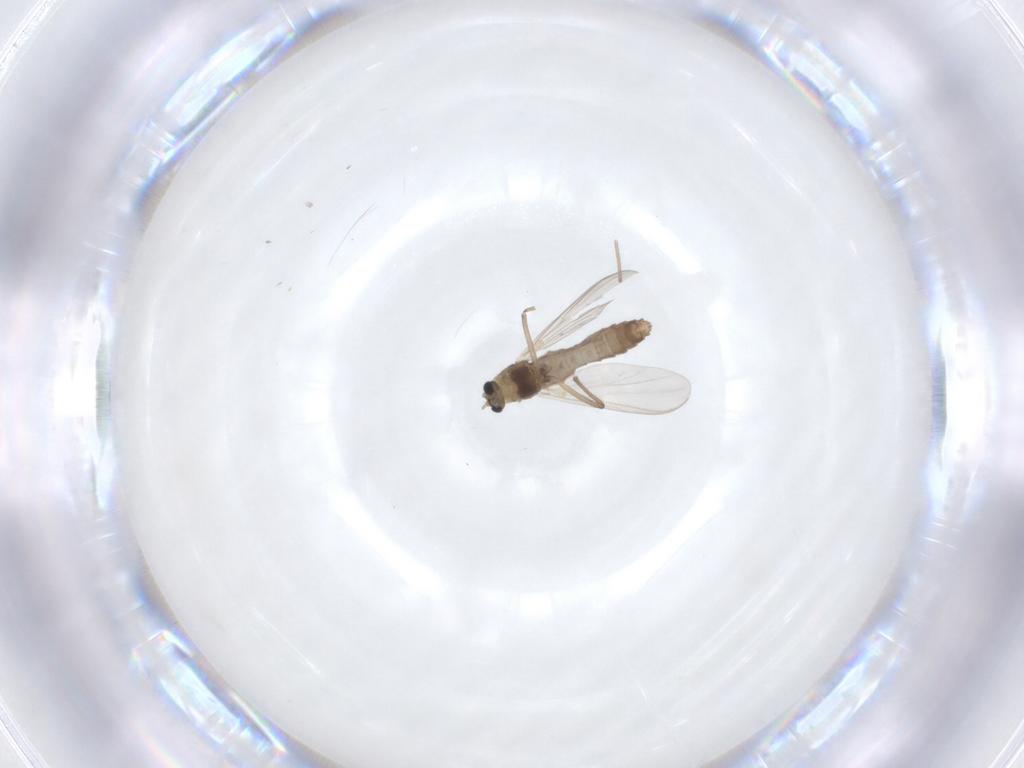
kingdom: Animalia
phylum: Arthropoda
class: Insecta
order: Diptera
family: Chironomidae
